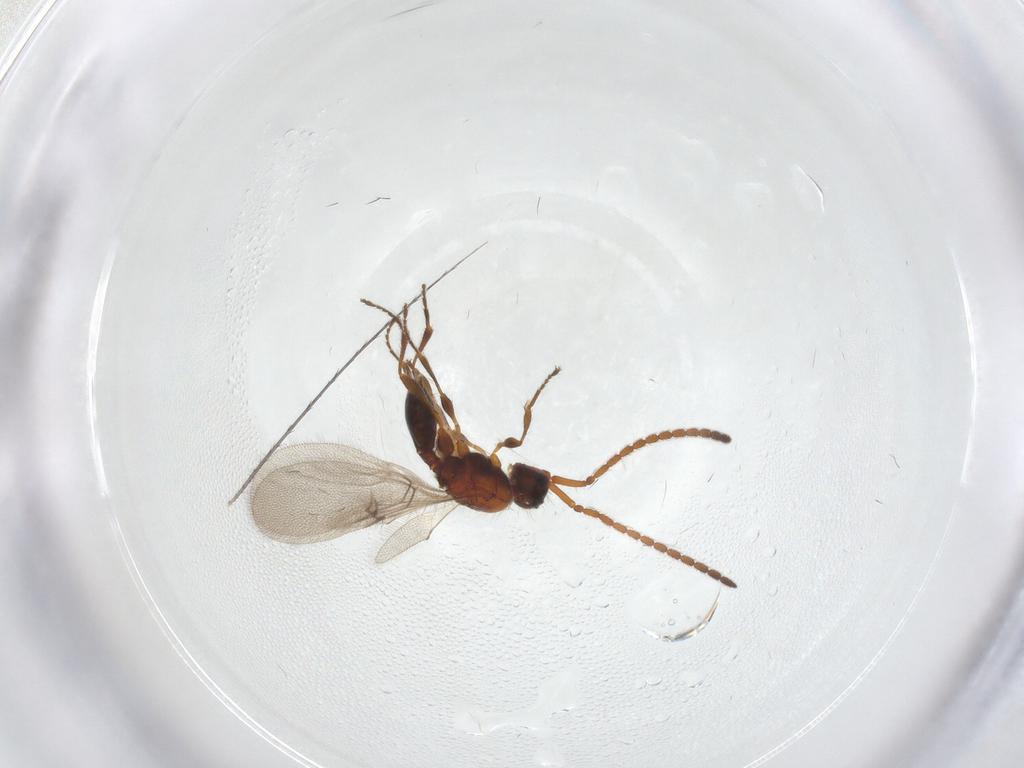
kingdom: Animalia
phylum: Arthropoda
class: Insecta
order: Hymenoptera
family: Diapriidae
